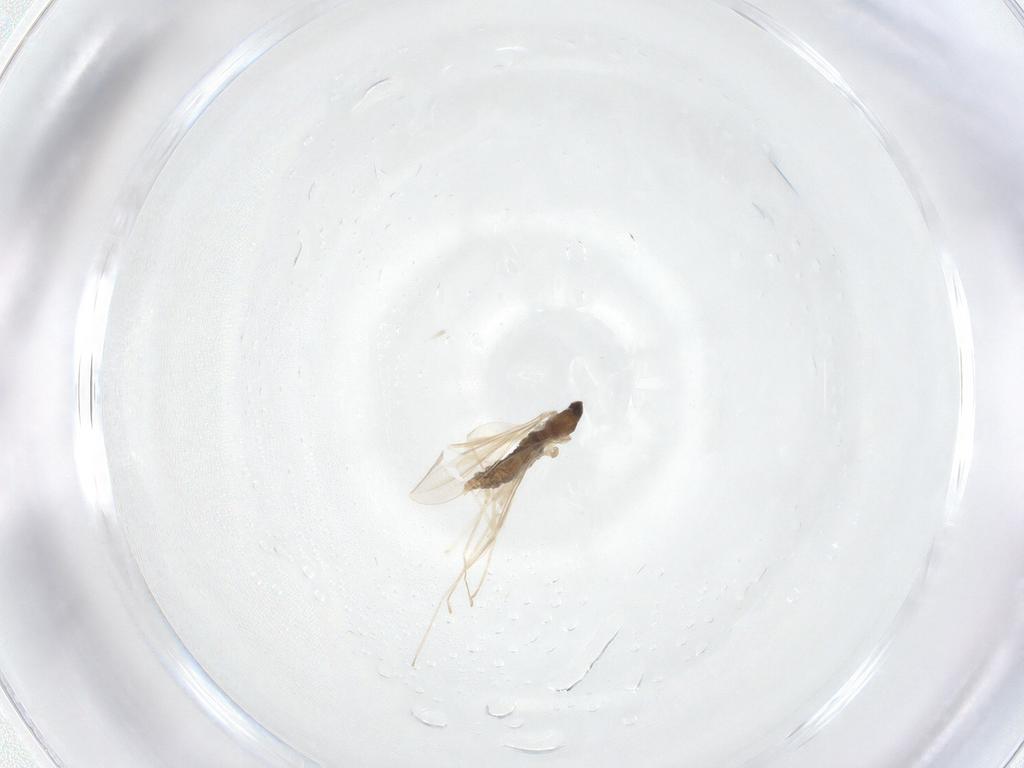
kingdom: Animalia
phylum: Arthropoda
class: Insecta
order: Diptera
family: Cecidomyiidae
